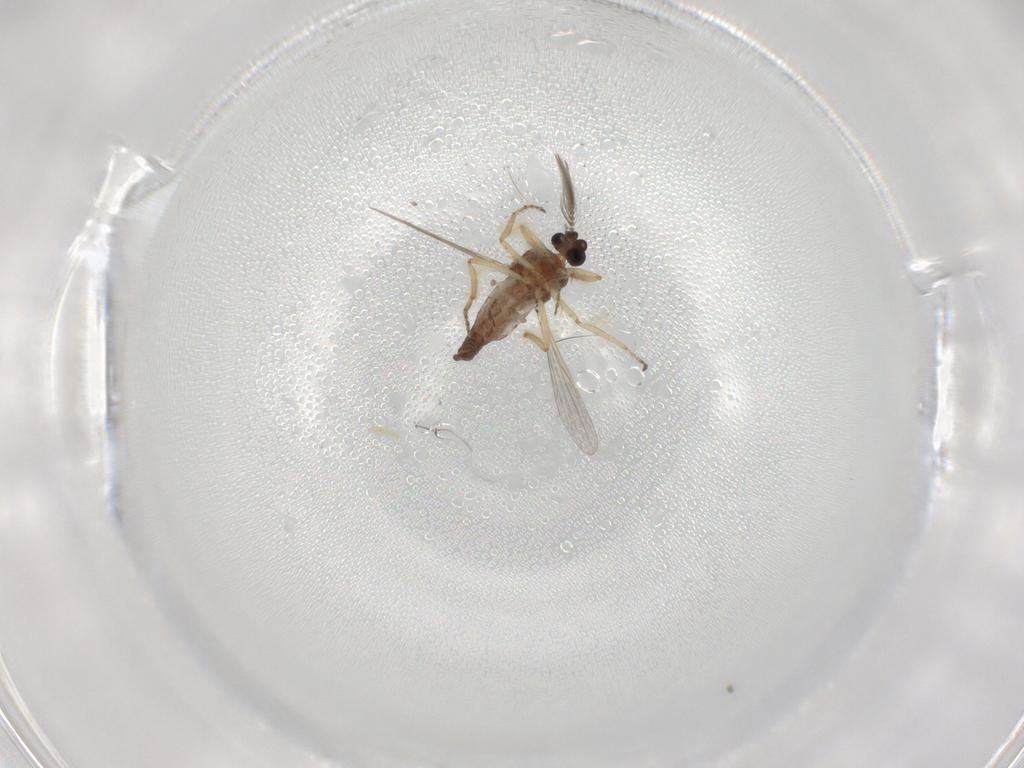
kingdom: Animalia
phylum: Arthropoda
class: Insecta
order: Diptera
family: Ceratopogonidae
